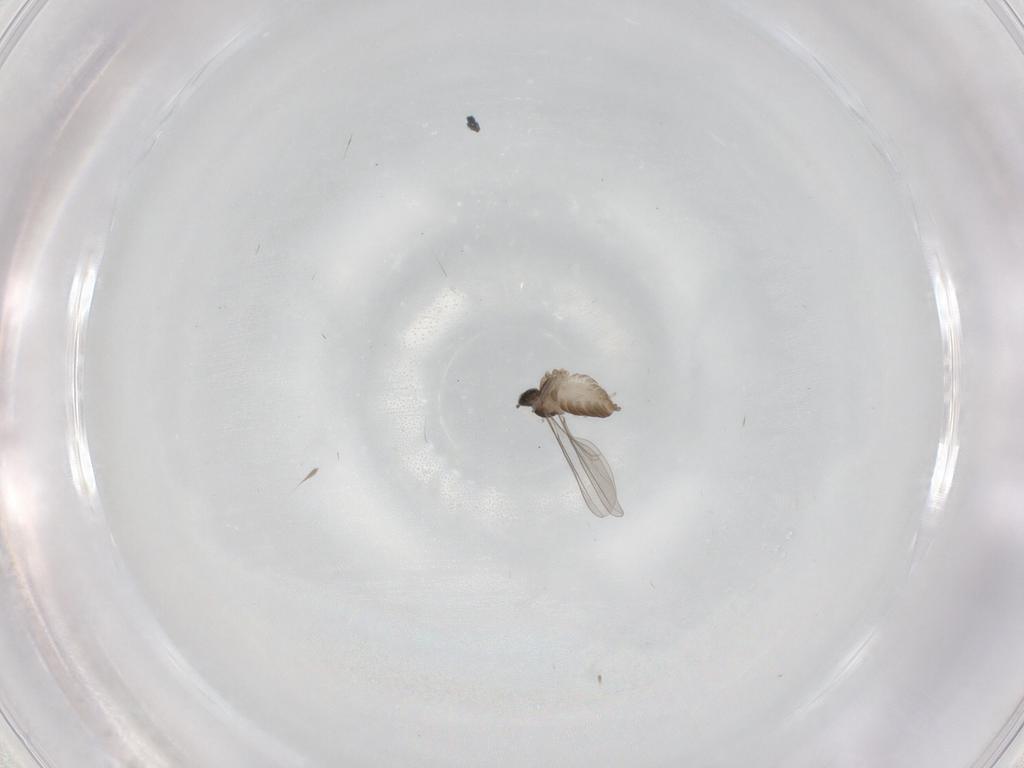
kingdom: Animalia
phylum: Arthropoda
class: Insecta
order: Diptera
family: Cecidomyiidae
